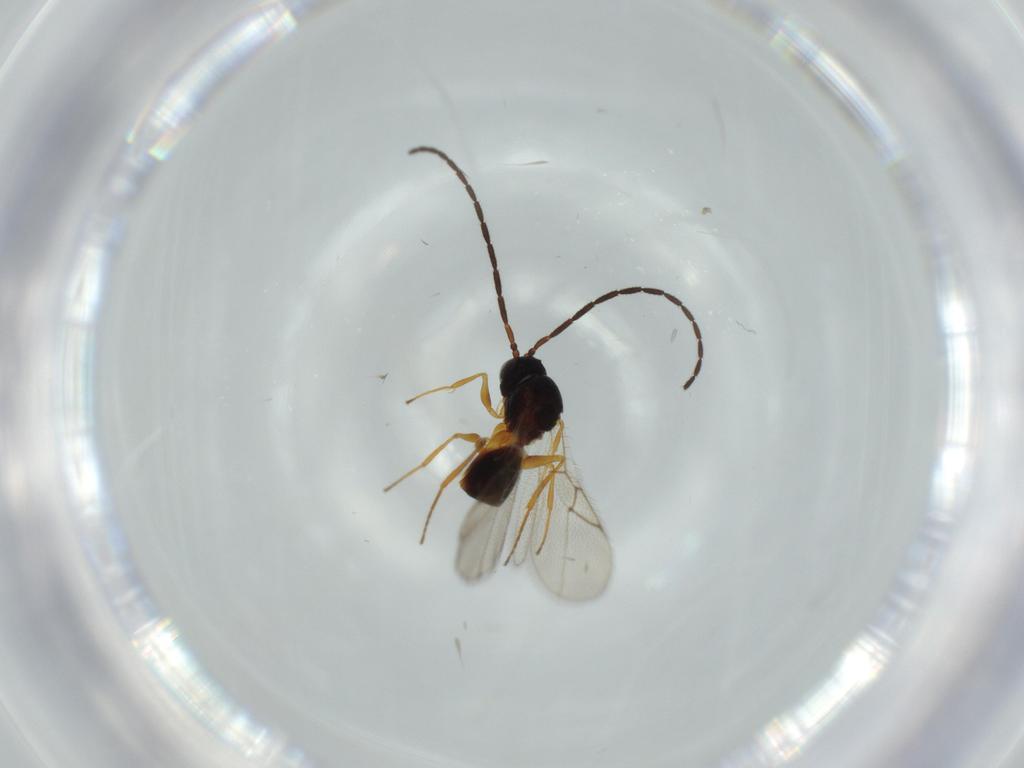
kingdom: Animalia
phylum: Arthropoda
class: Insecta
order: Hymenoptera
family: Figitidae
